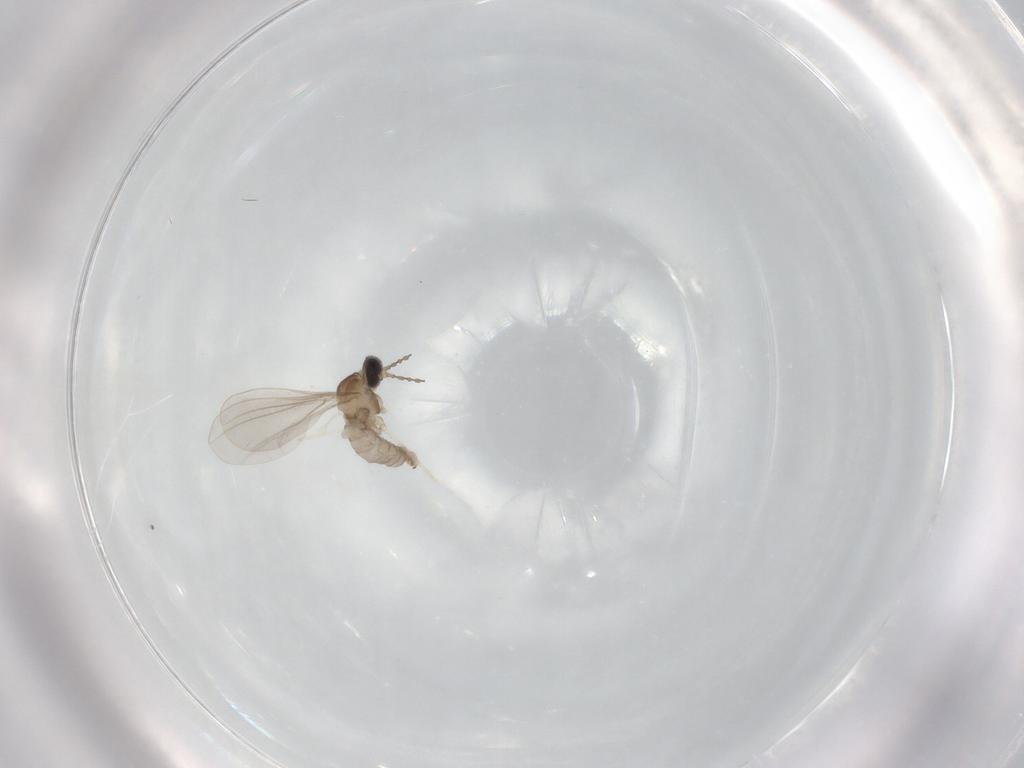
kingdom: Animalia
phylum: Arthropoda
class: Insecta
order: Diptera
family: Cecidomyiidae
